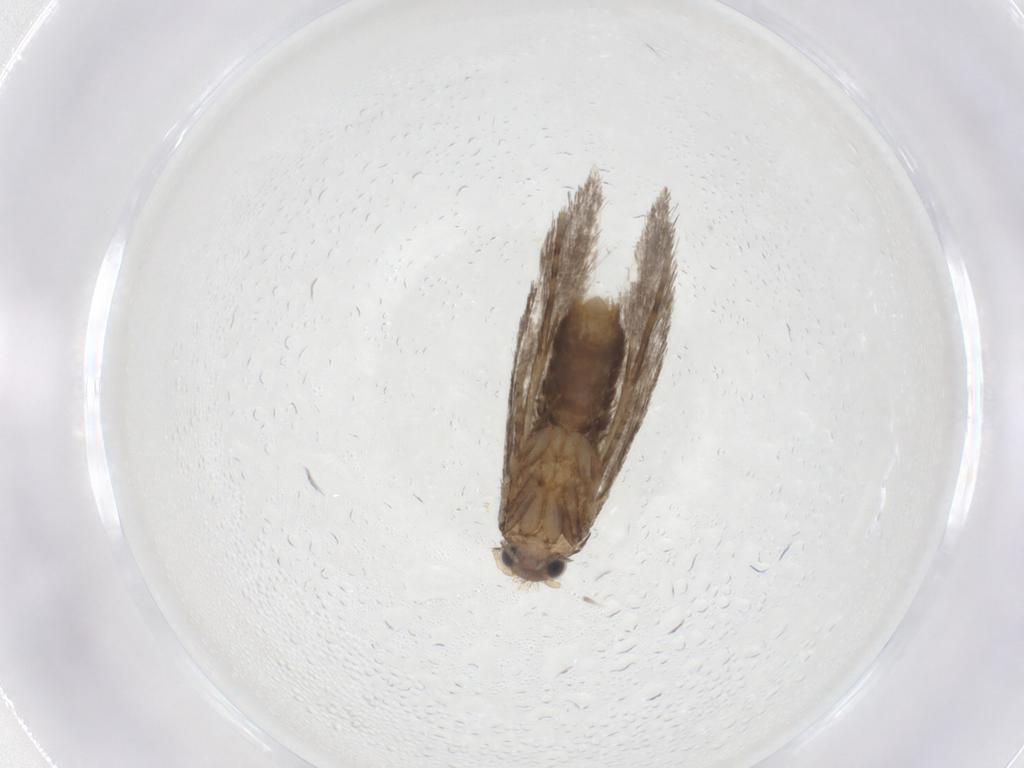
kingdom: Animalia
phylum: Arthropoda
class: Insecta
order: Lepidoptera
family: Tineidae
